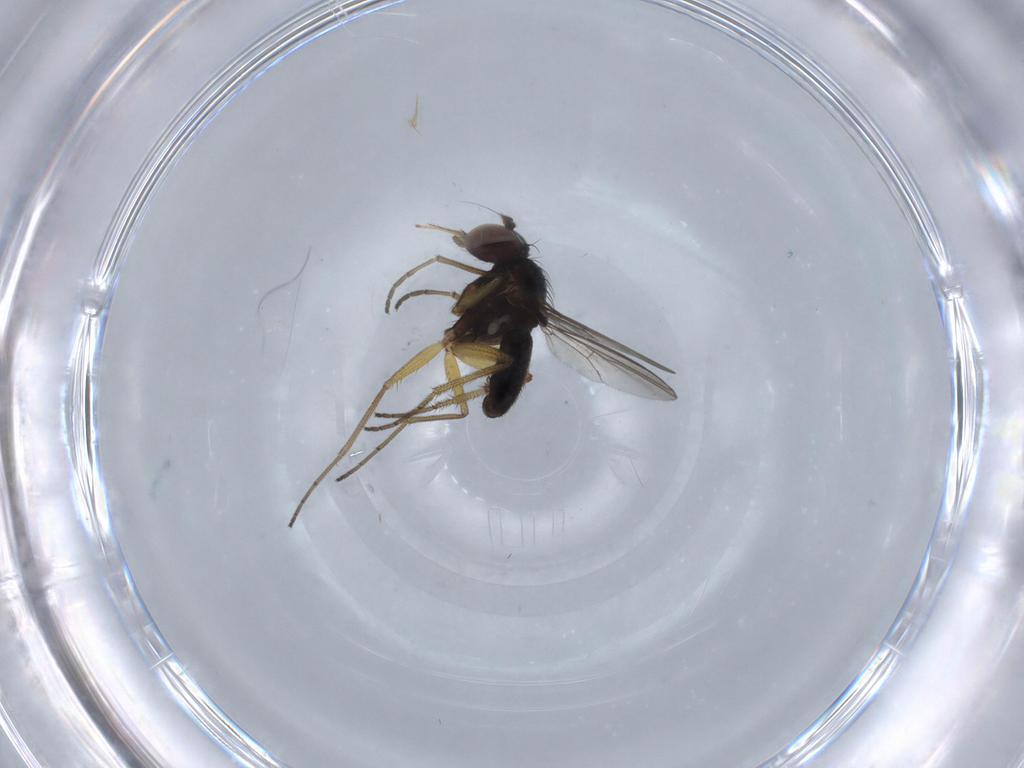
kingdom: Animalia
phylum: Arthropoda
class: Insecta
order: Diptera
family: Dolichopodidae
